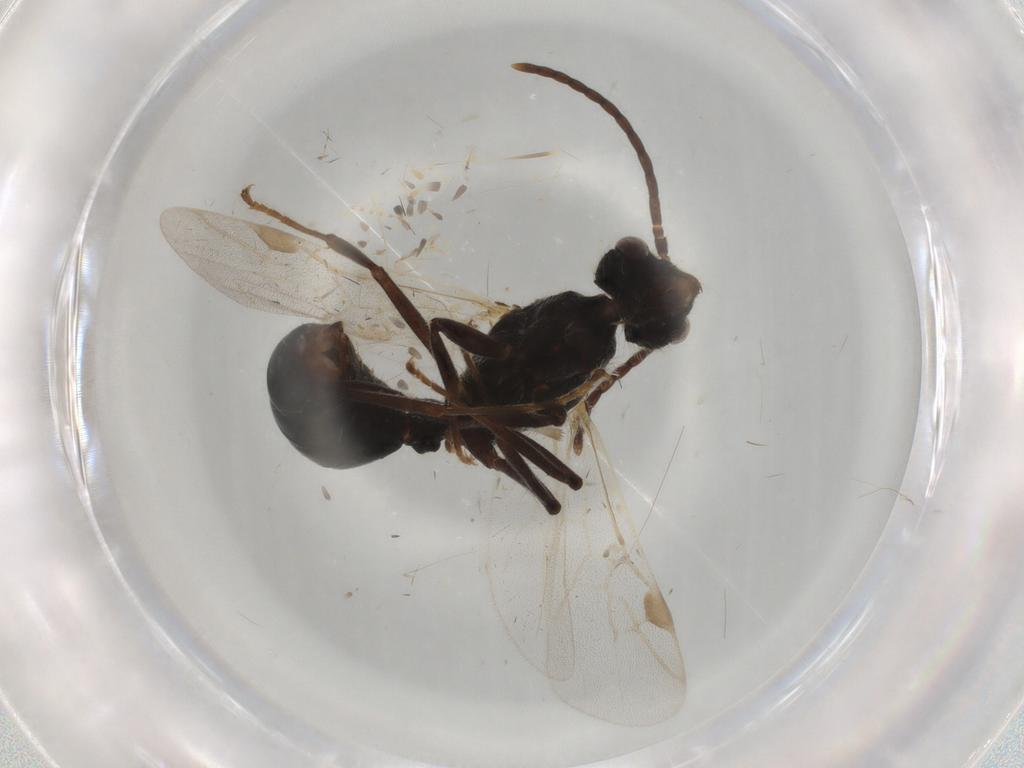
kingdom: Animalia
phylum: Arthropoda
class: Insecta
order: Hymenoptera
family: Formicidae
